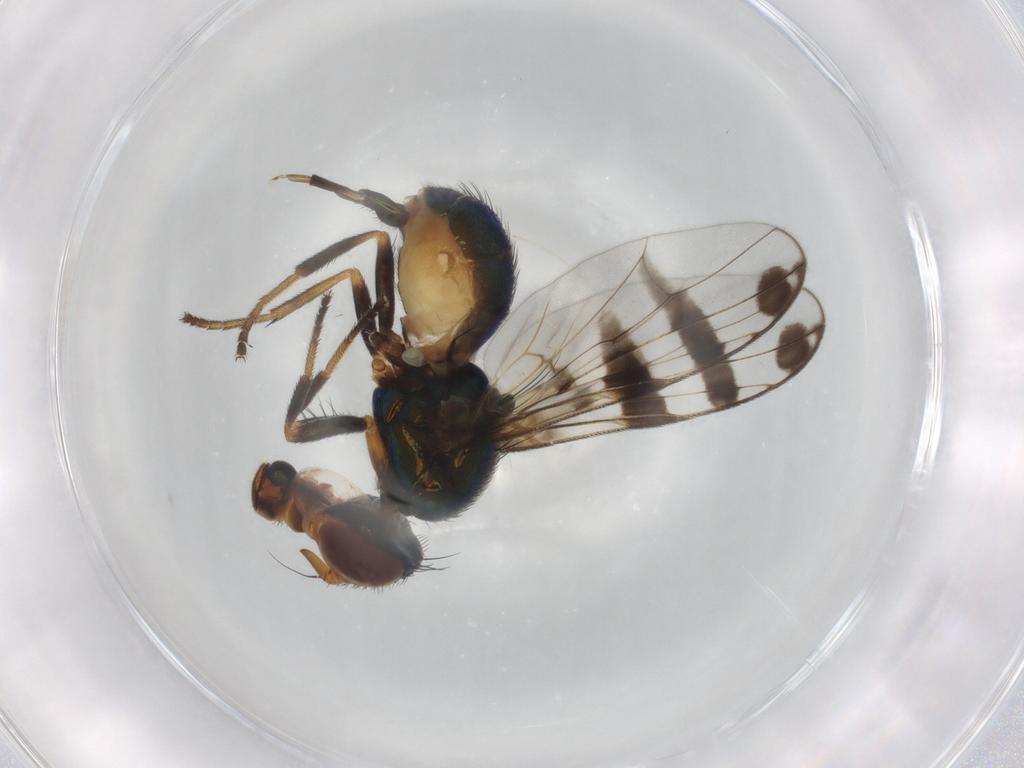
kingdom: Animalia
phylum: Arthropoda
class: Insecta
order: Diptera
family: Platystomatidae
